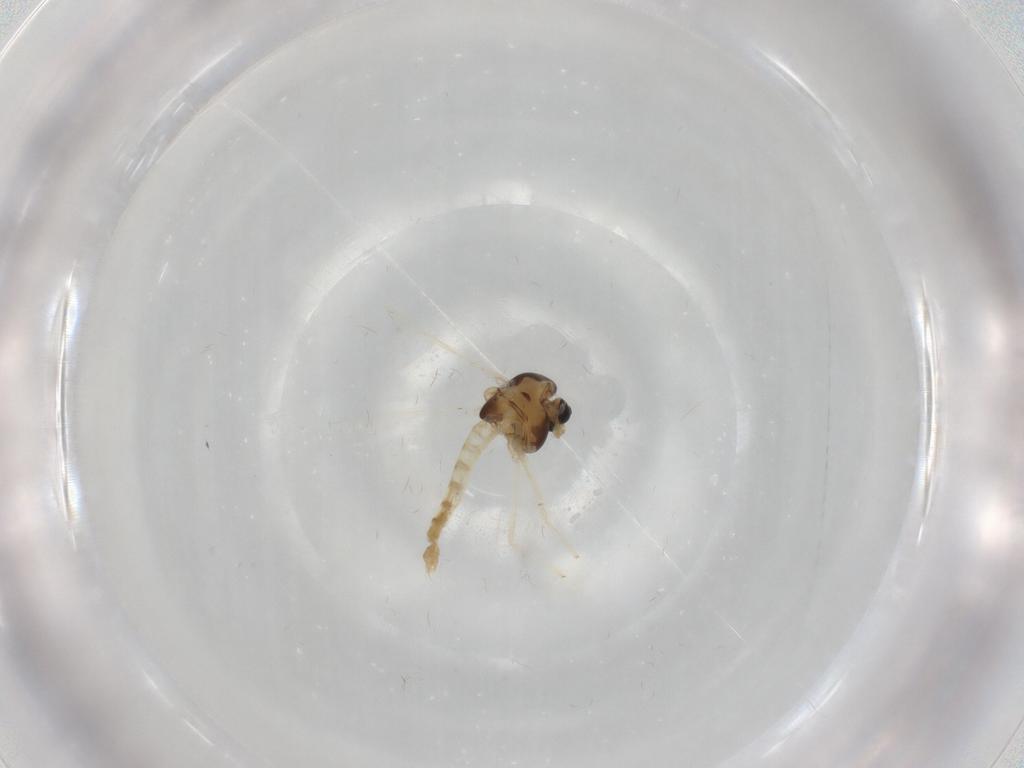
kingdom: Animalia
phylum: Arthropoda
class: Insecta
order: Diptera
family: Chironomidae
